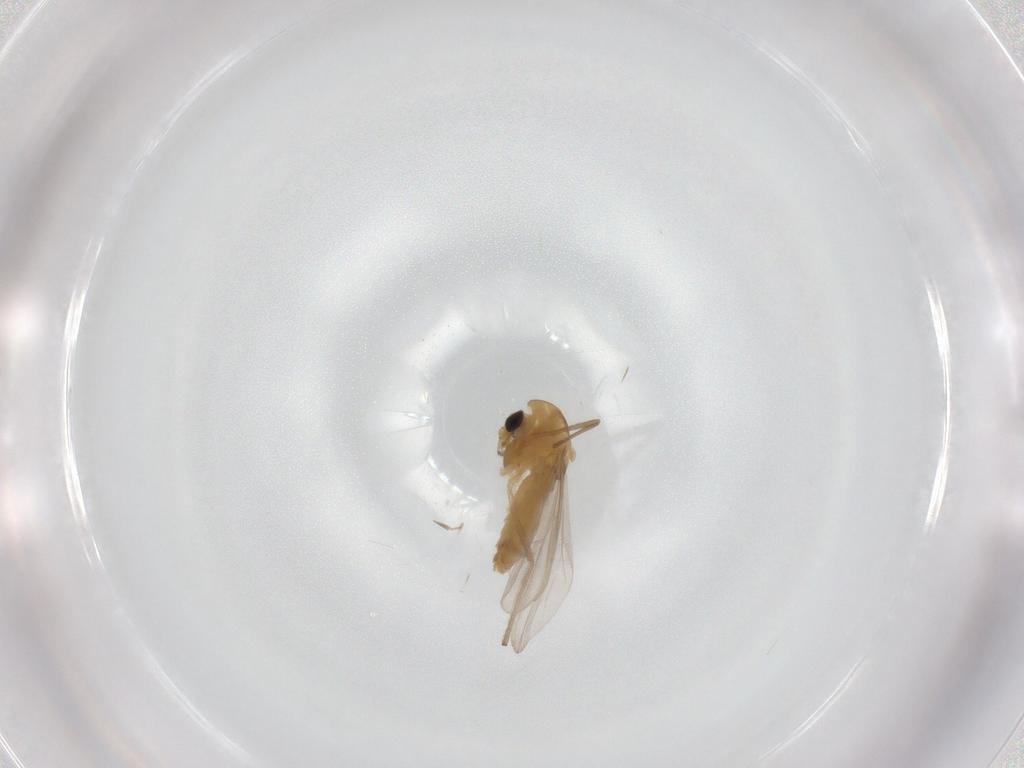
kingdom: Animalia
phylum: Arthropoda
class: Insecta
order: Diptera
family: Chironomidae
